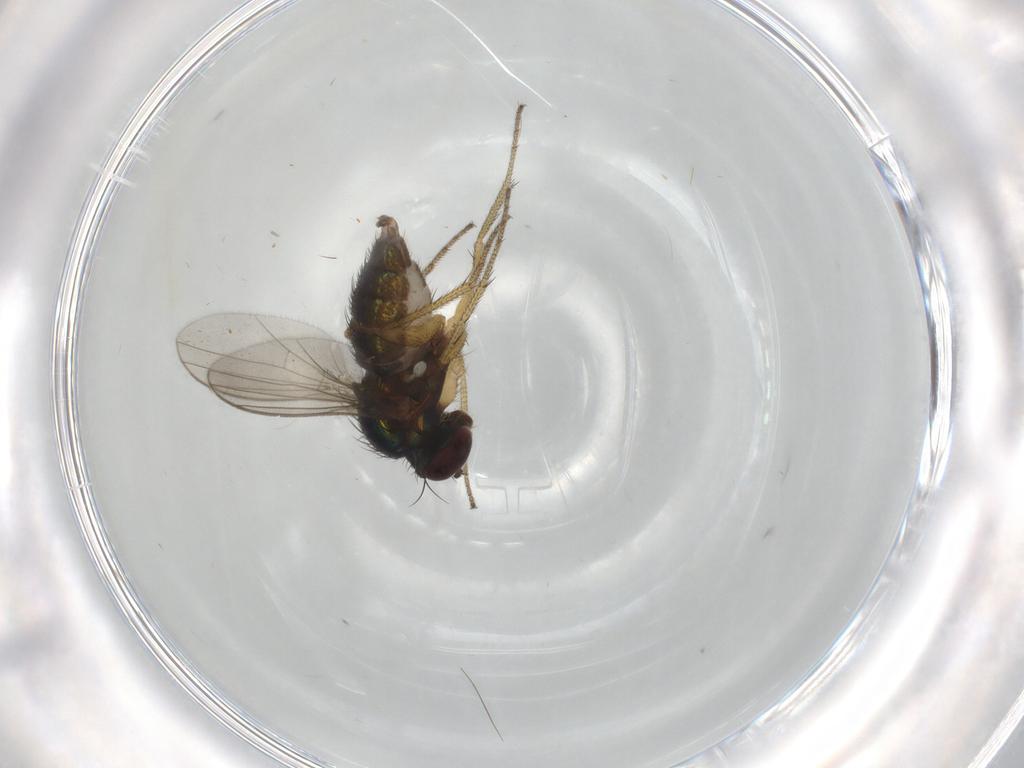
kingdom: Animalia
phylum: Arthropoda
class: Insecta
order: Diptera
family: Dolichopodidae
